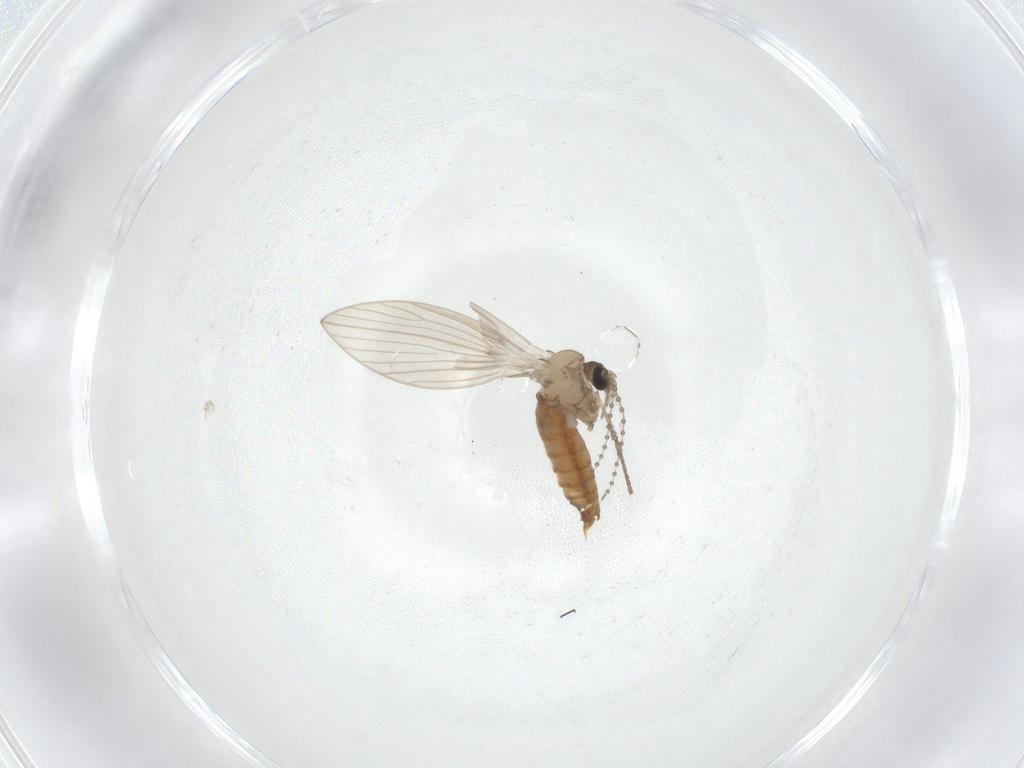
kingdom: Animalia
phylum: Arthropoda
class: Insecta
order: Diptera
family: Psychodidae
